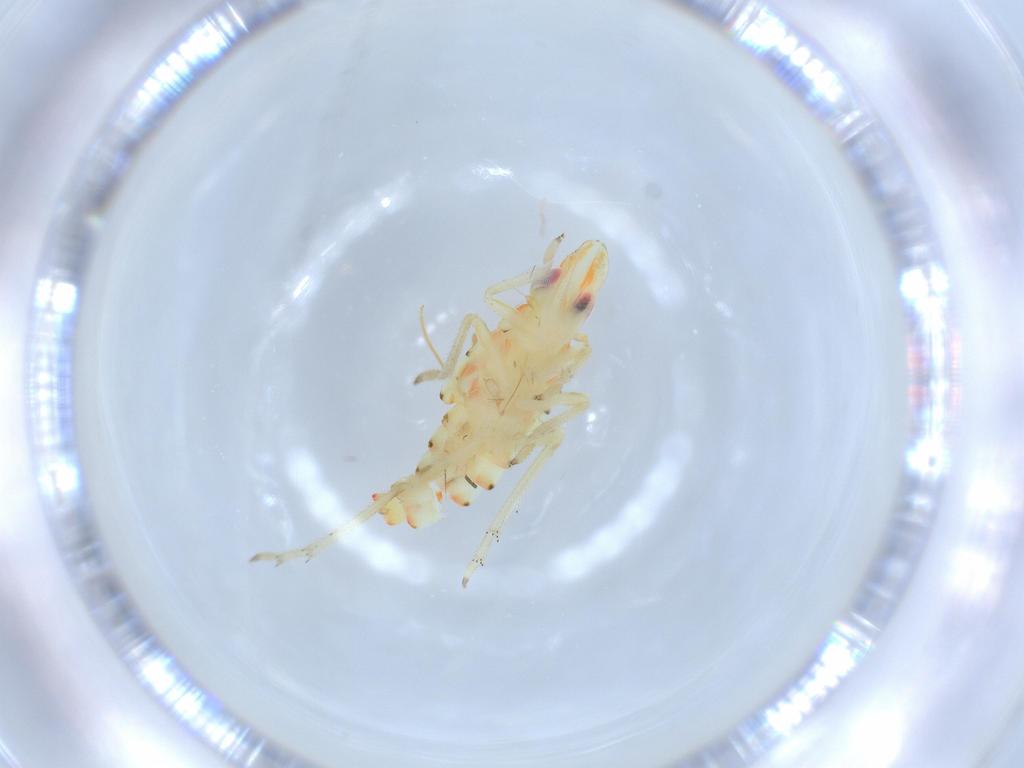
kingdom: Animalia
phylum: Arthropoda
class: Insecta
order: Hemiptera
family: Tropiduchidae
